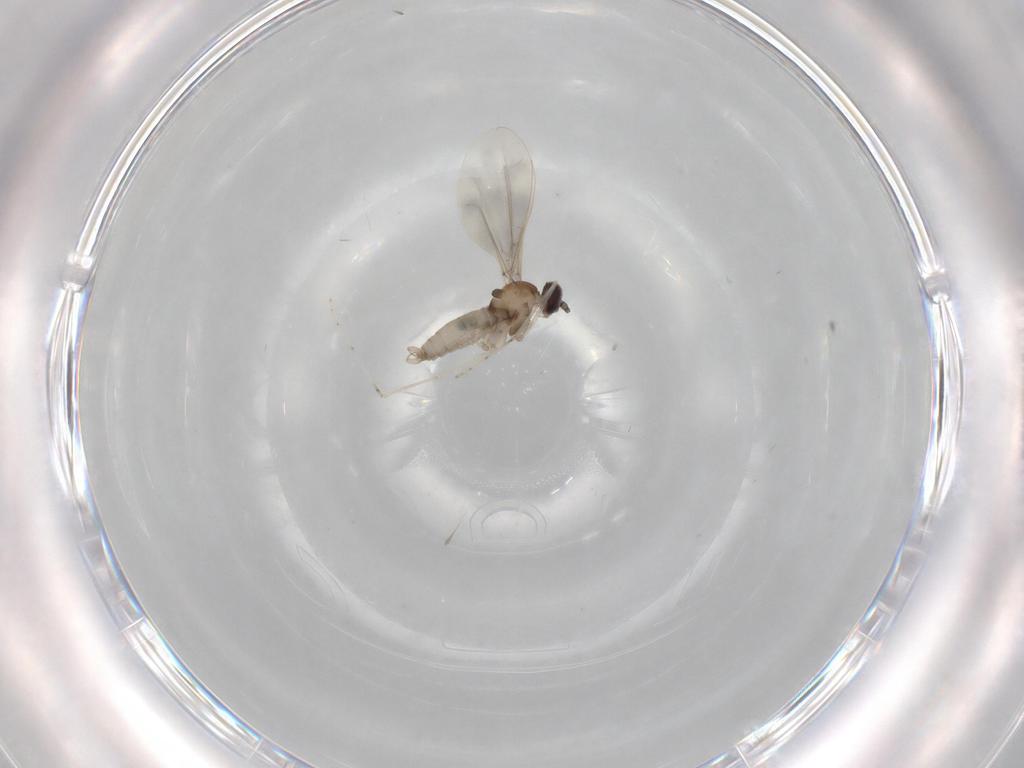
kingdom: Animalia
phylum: Arthropoda
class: Insecta
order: Diptera
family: Cecidomyiidae
